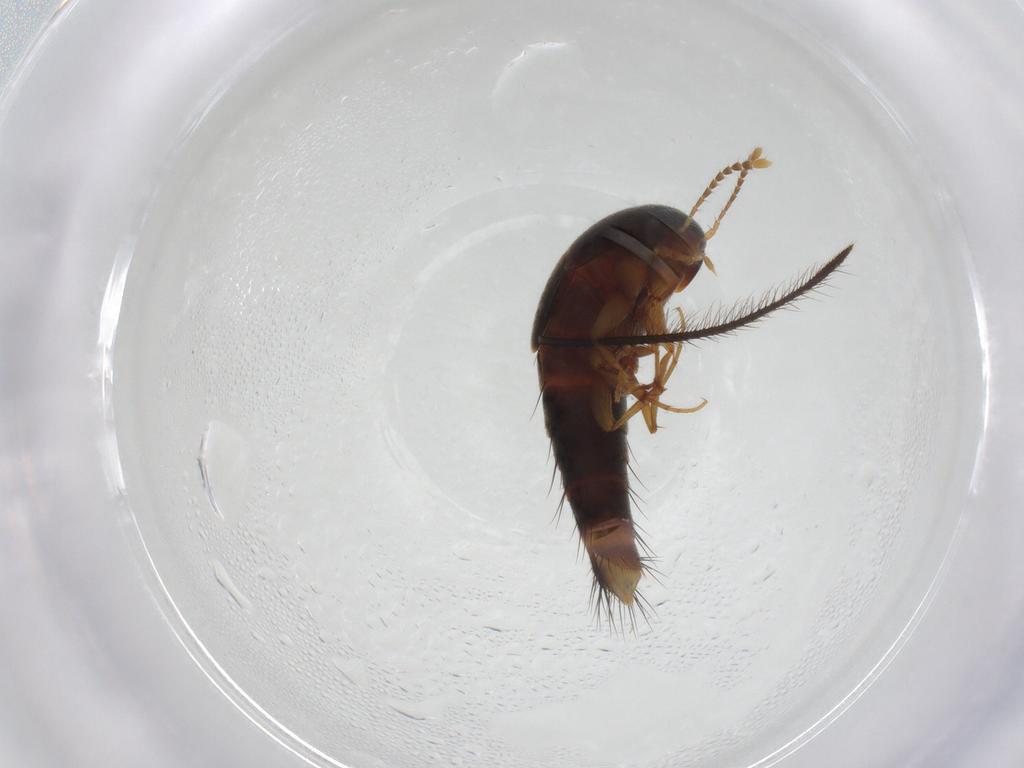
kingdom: Animalia
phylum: Arthropoda
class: Insecta
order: Coleoptera
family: Staphylinidae
